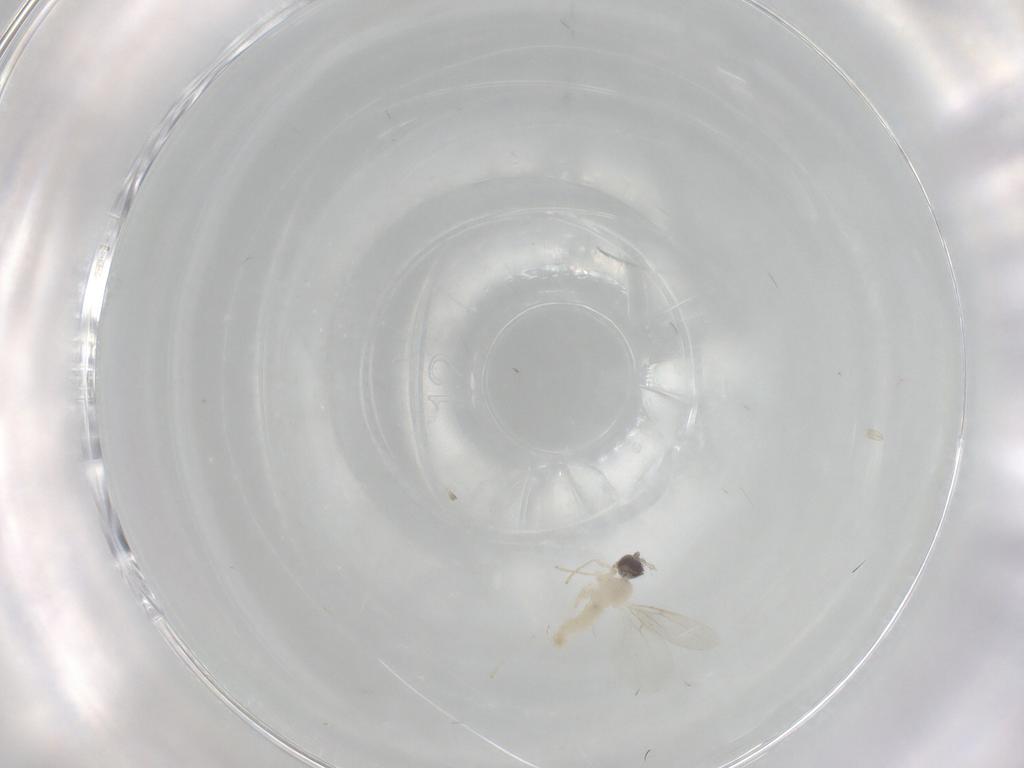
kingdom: Animalia
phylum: Arthropoda
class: Insecta
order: Diptera
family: Cecidomyiidae
